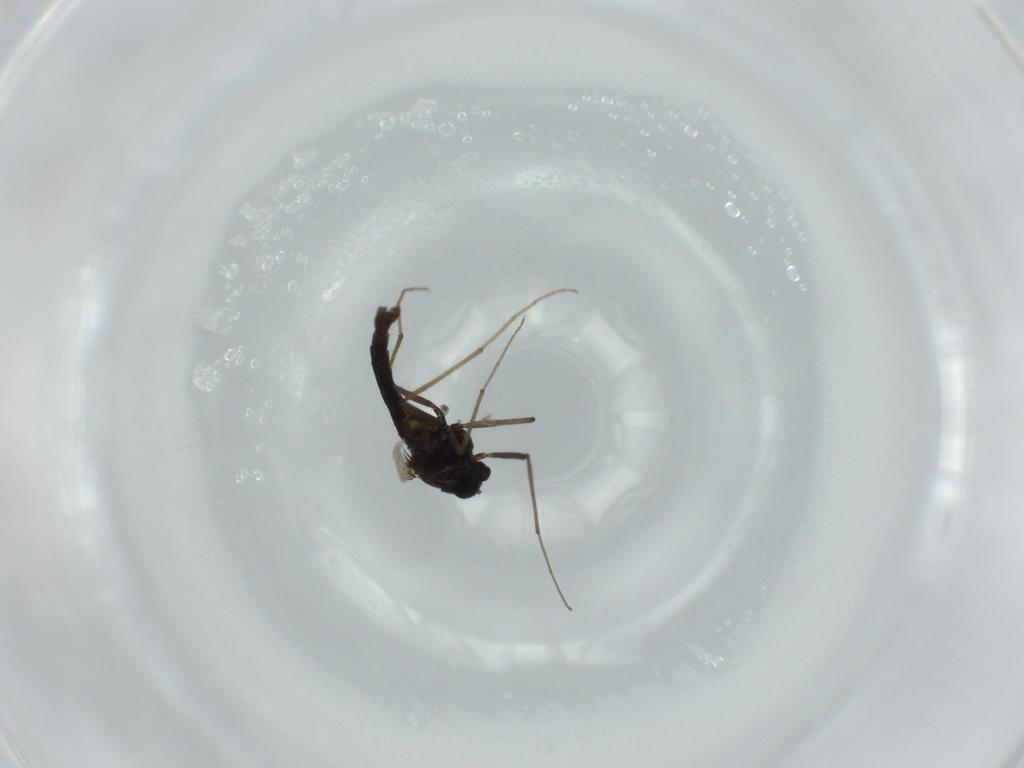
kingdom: Animalia
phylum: Arthropoda
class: Insecta
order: Diptera
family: Chironomidae
